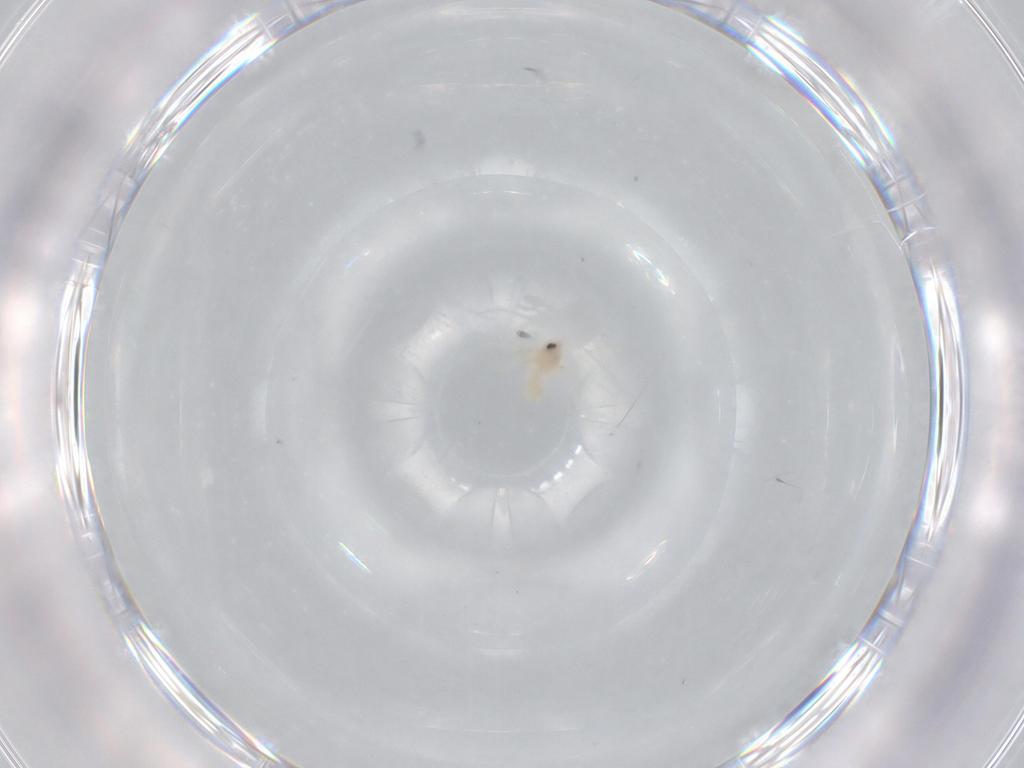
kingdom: Animalia
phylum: Arthropoda
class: Insecta
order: Hemiptera
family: Aleyrodidae
